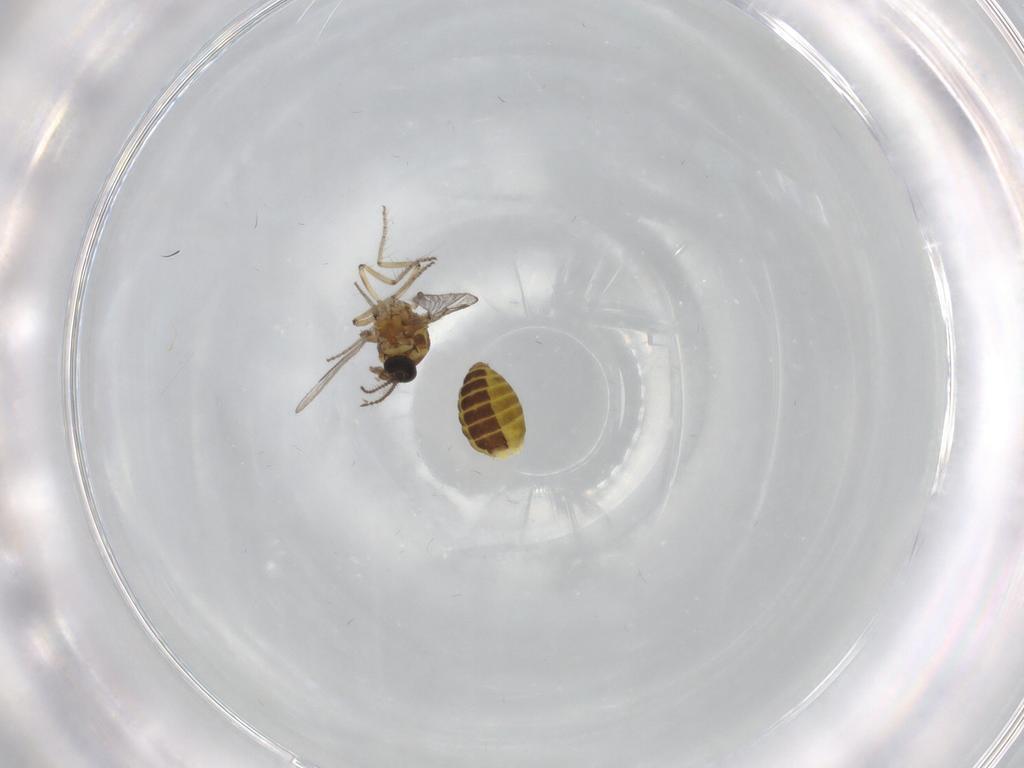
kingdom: Animalia
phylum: Arthropoda
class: Insecta
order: Diptera
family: Ceratopogonidae
